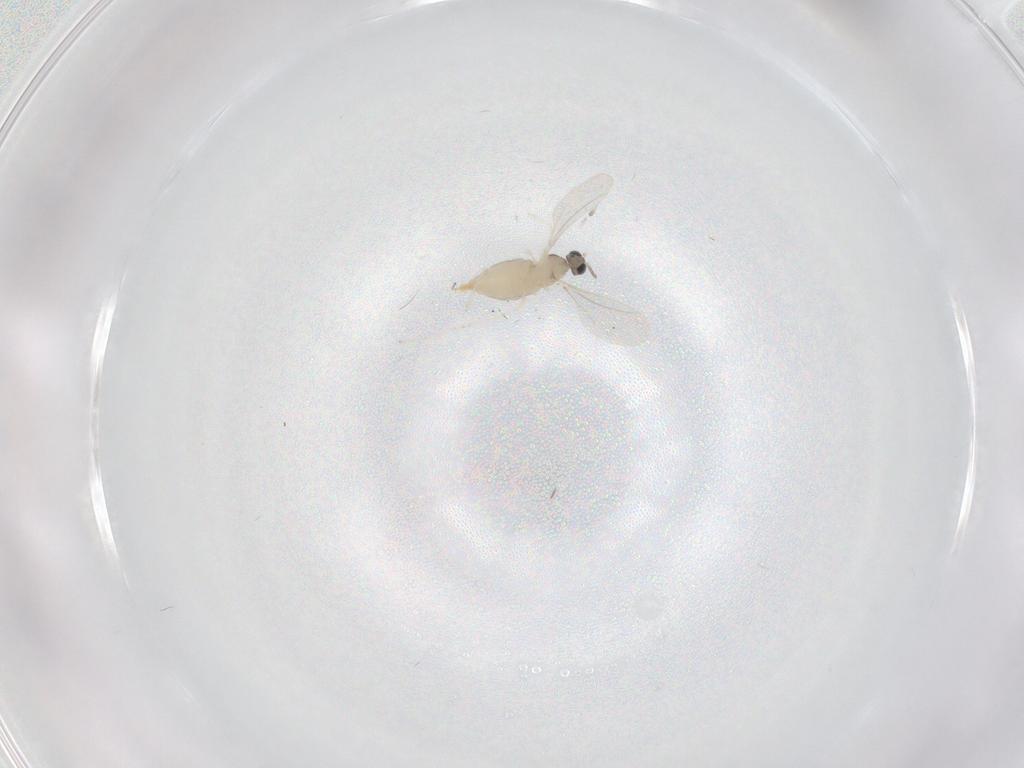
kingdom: Animalia
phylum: Arthropoda
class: Insecta
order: Diptera
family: Cecidomyiidae
